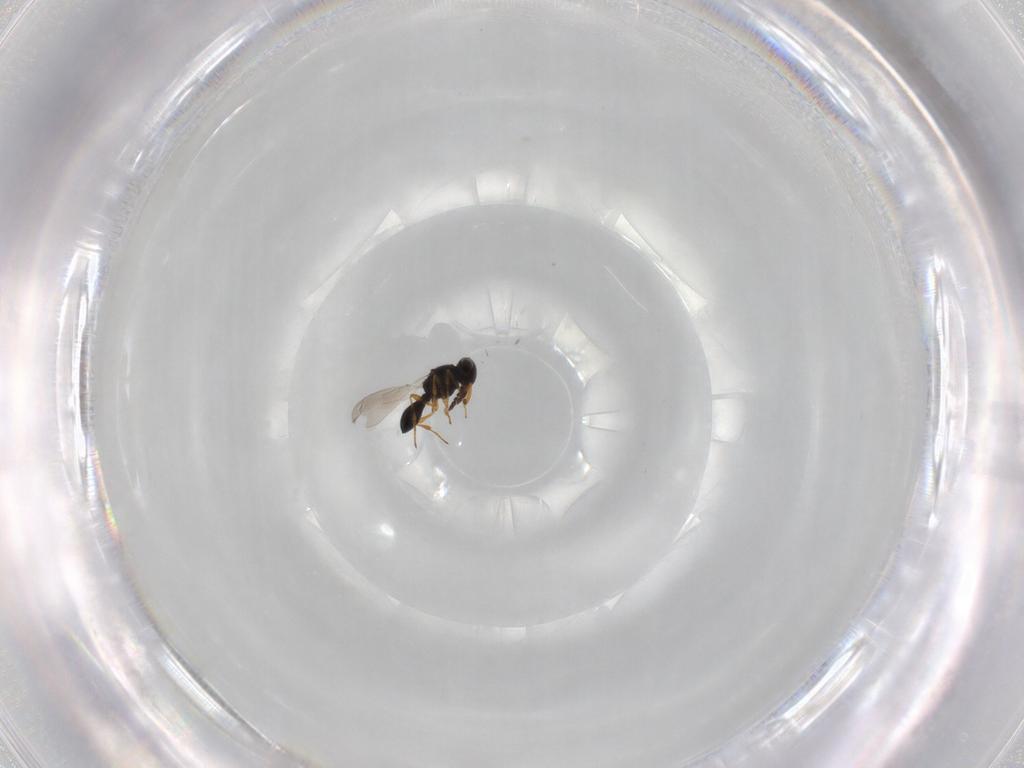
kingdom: Animalia
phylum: Arthropoda
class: Insecta
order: Hymenoptera
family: Platygastridae
